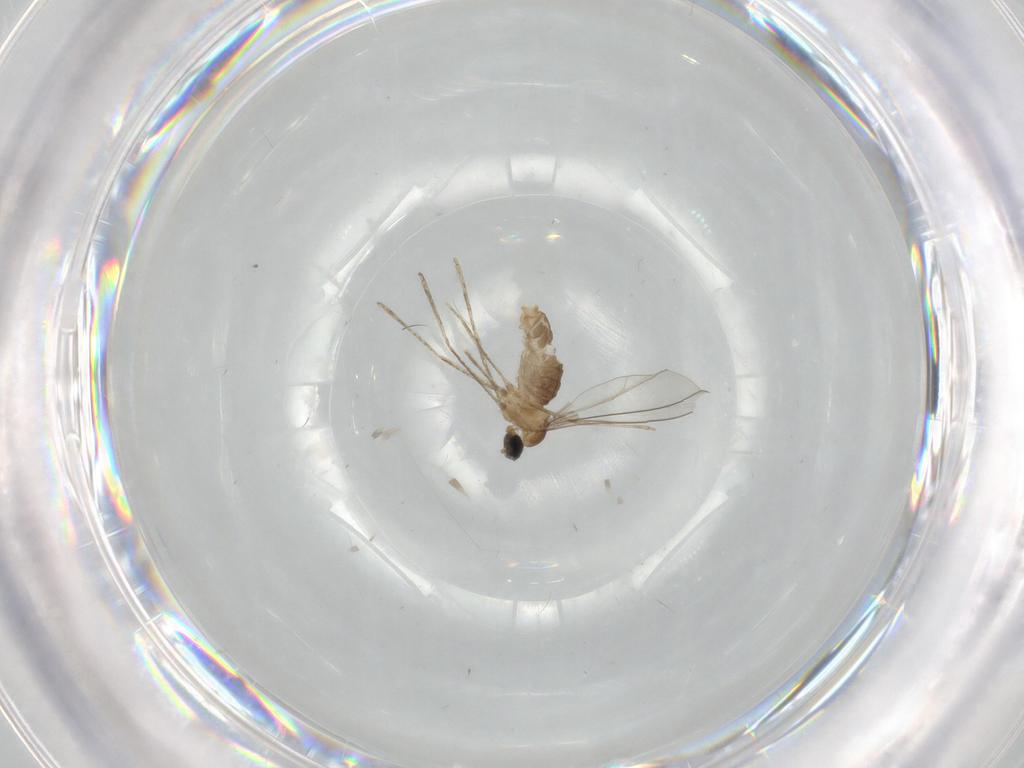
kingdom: Animalia
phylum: Arthropoda
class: Insecta
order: Diptera
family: Cecidomyiidae
